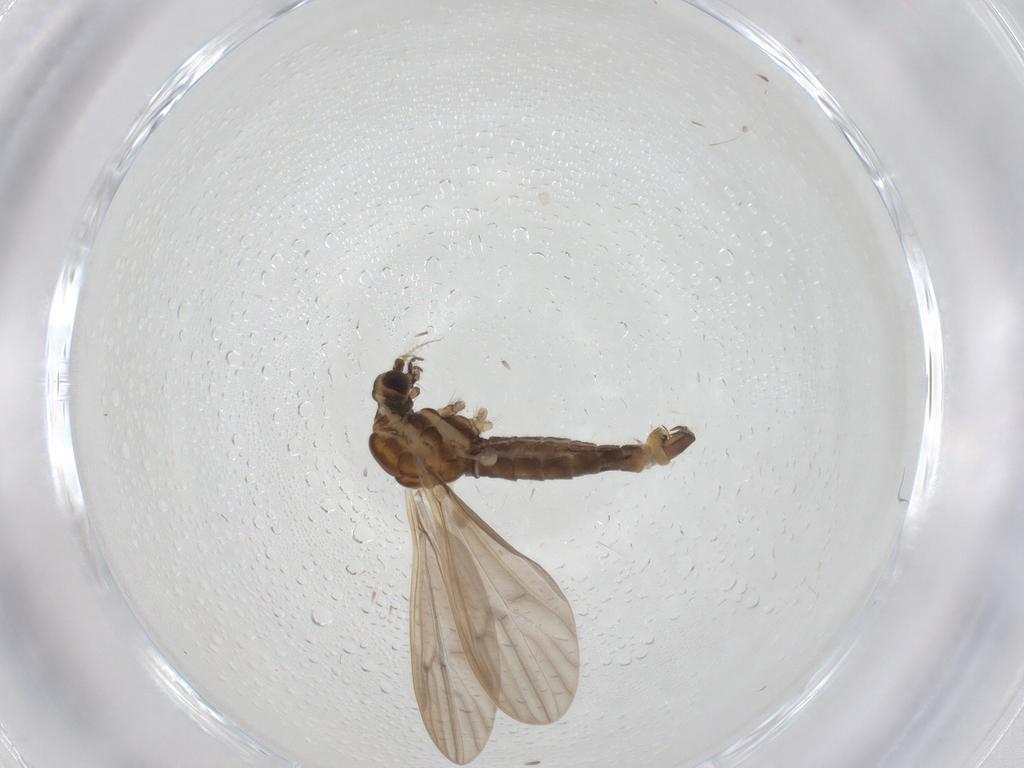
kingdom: Animalia
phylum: Arthropoda
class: Insecta
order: Diptera
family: Limoniidae
